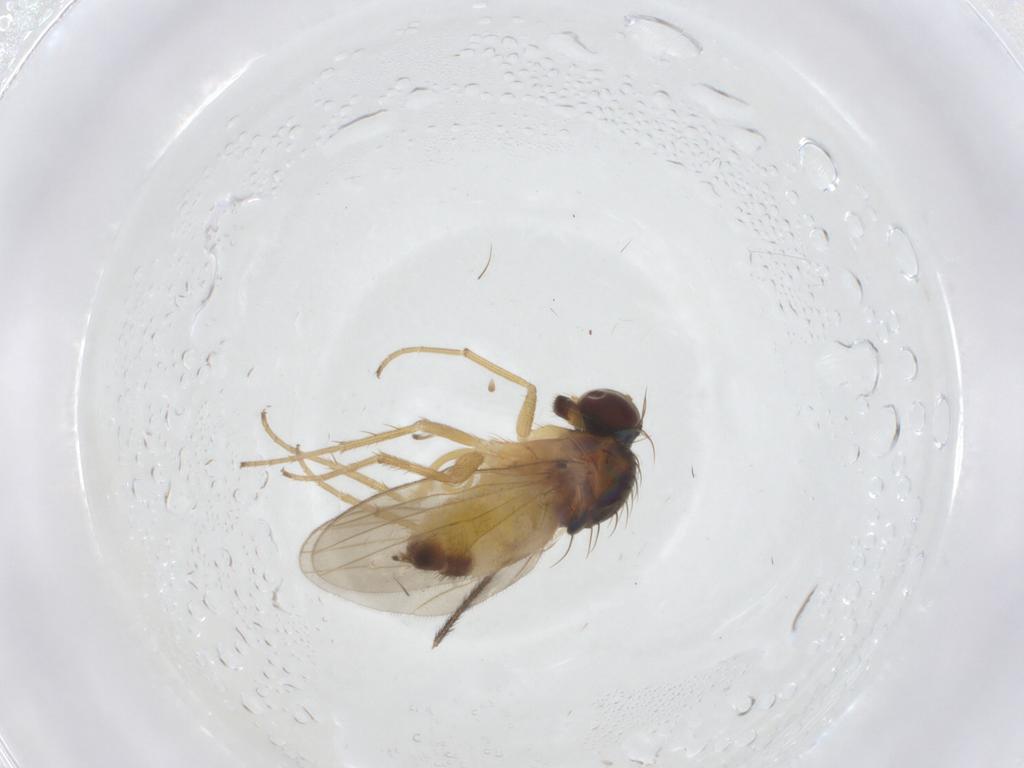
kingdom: Animalia
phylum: Arthropoda
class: Insecta
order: Diptera
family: Dolichopodidae
